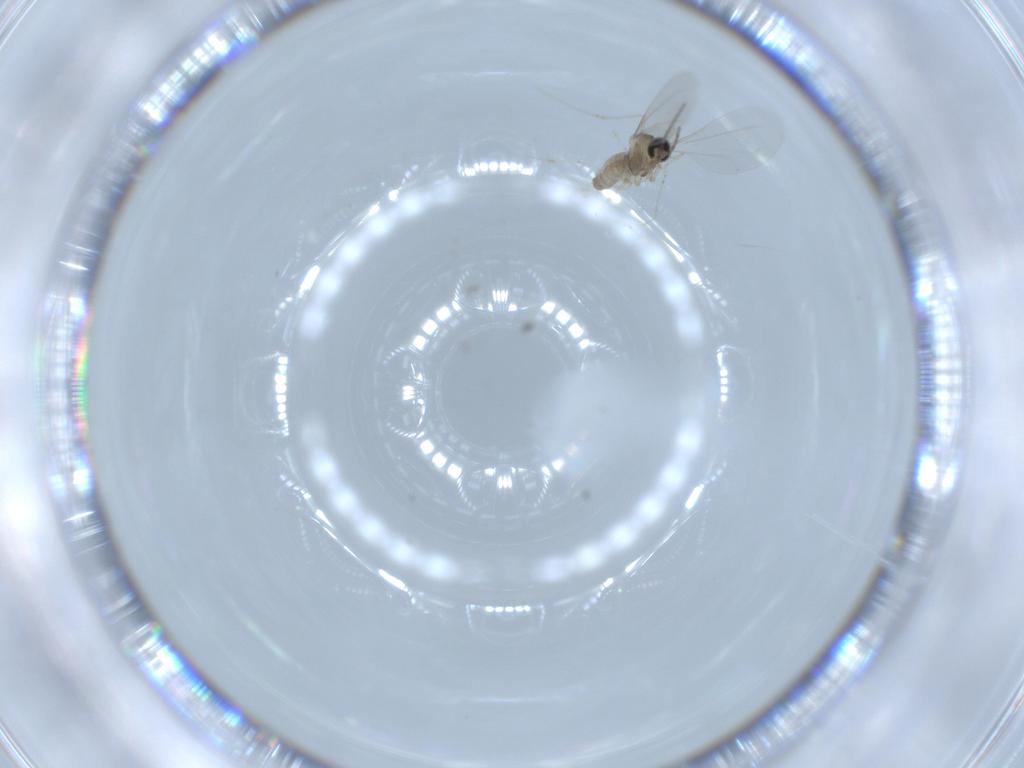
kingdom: Animalia
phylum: Arthropoda
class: Insecta
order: Diptera
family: Cecidomyiidae
